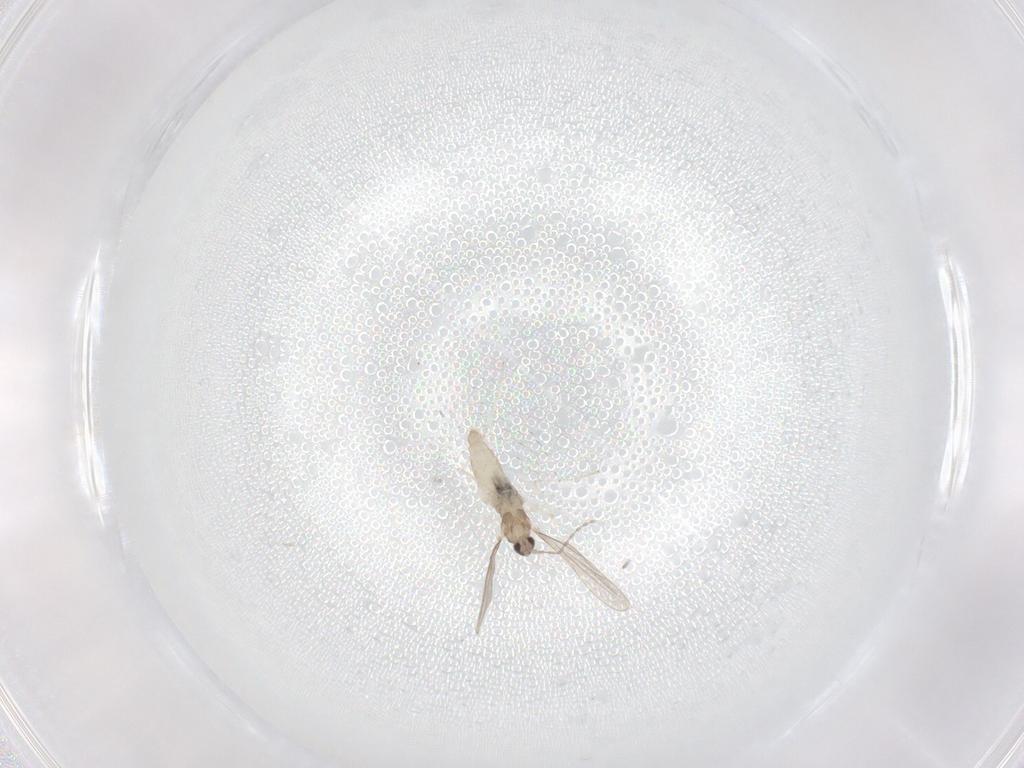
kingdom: Animalia
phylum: Arthropoda
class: Insecta
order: Diptera
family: Cecidomyiidae
